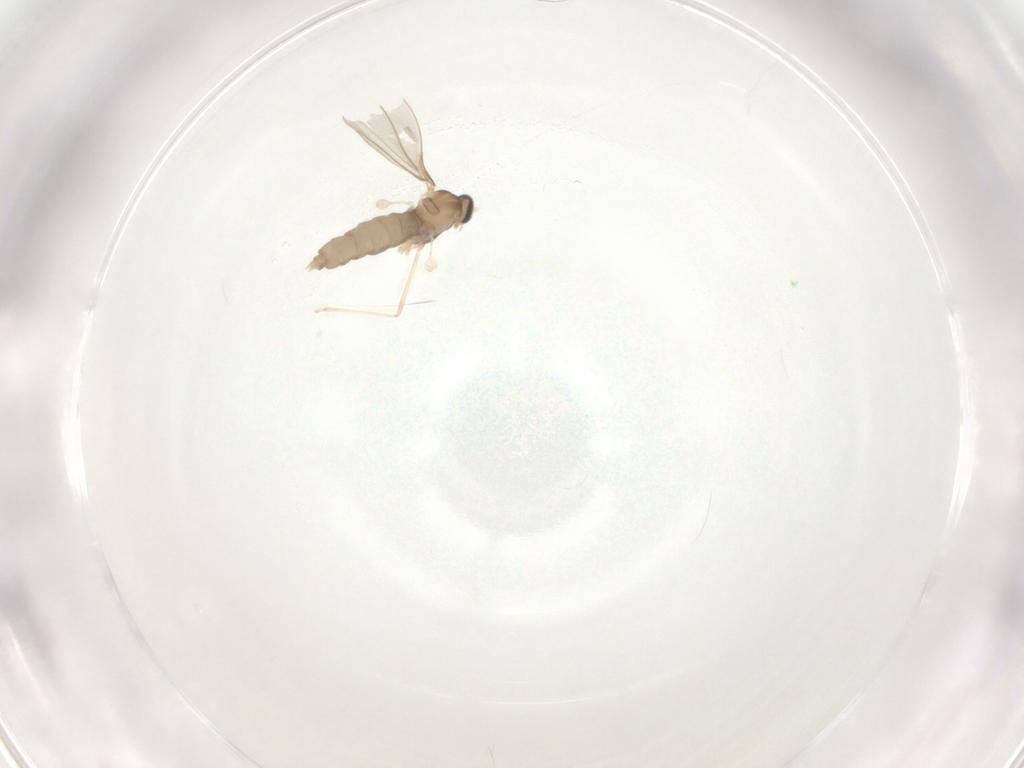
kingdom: Animalia
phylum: Arthropoda
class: Insecta
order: Diptera
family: Cecidomyiidae
